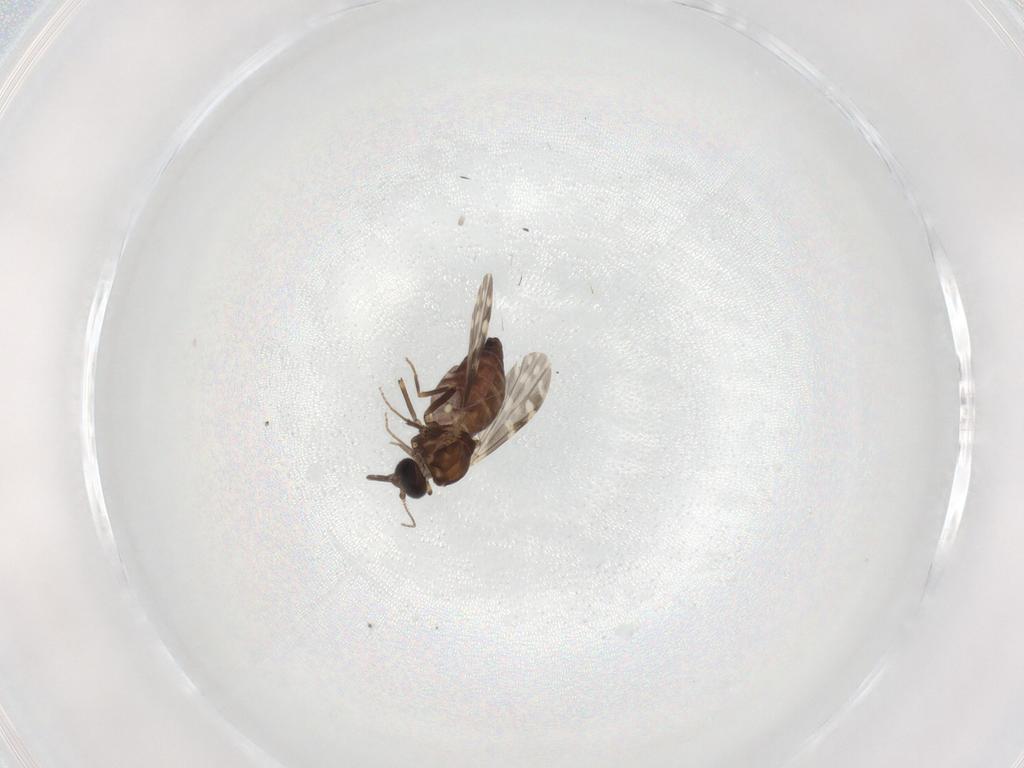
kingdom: Animalia
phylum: Arthropoda
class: Insecta
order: Diptera
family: Ceratopogonidae
